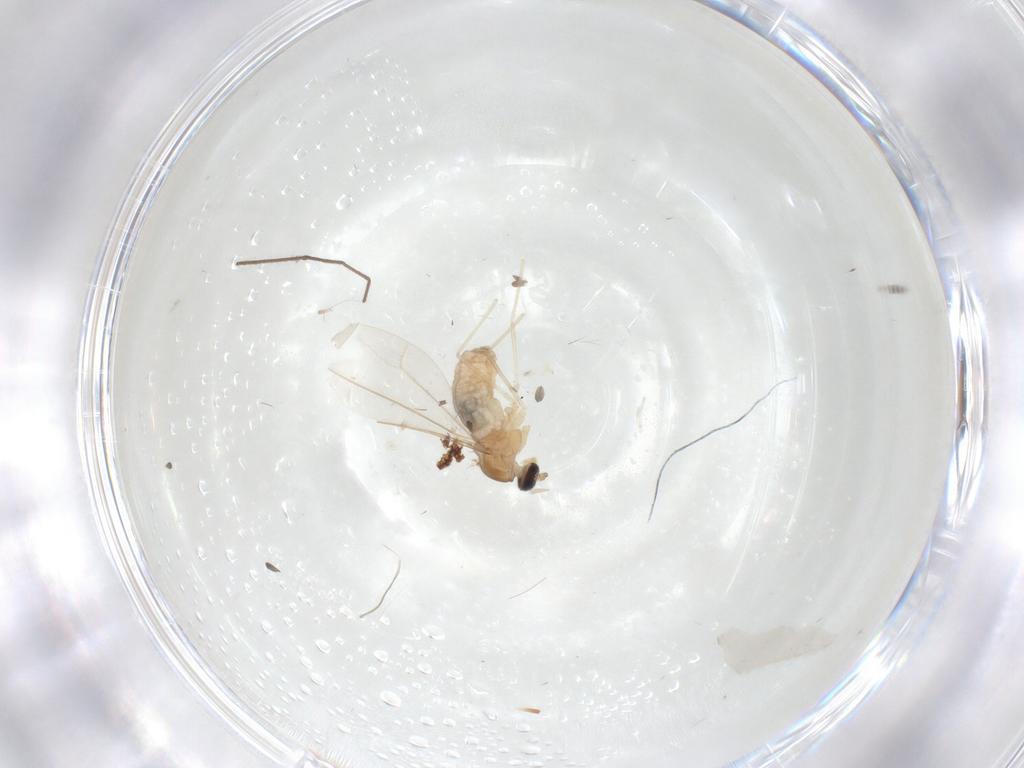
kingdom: Animalia
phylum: Arthropoda
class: Insecta
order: Diptera
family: Cecidomyiidae
